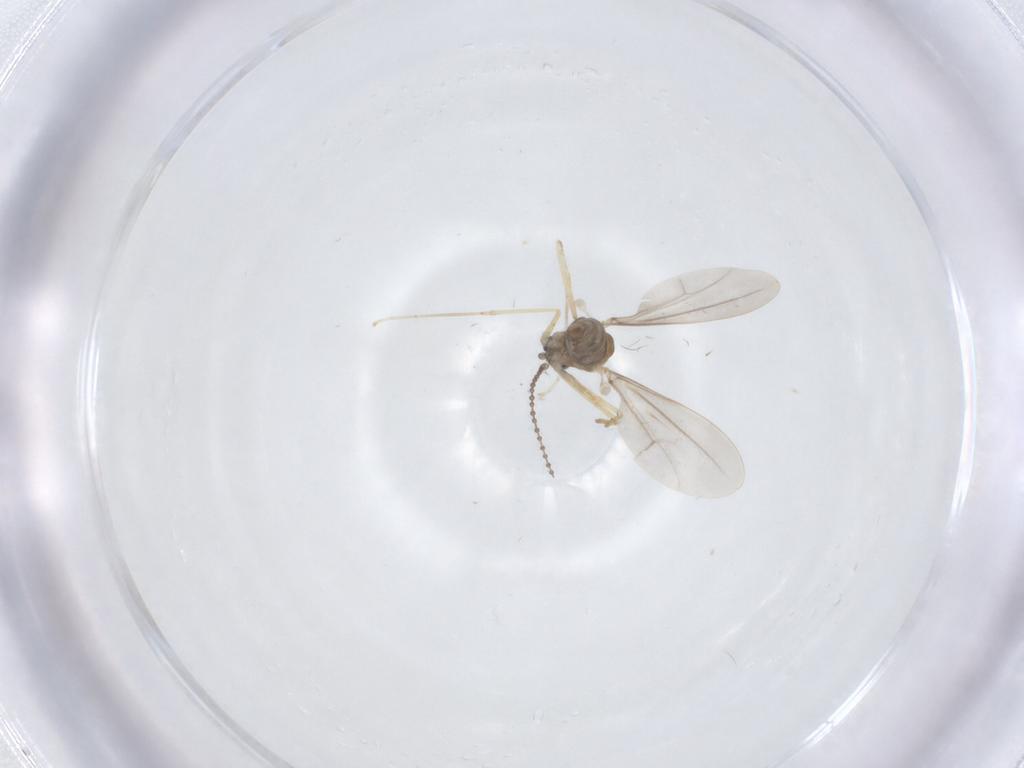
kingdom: Animalia
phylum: Arthropoda
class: Insecta
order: Diptera
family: Cecidomyiidae
